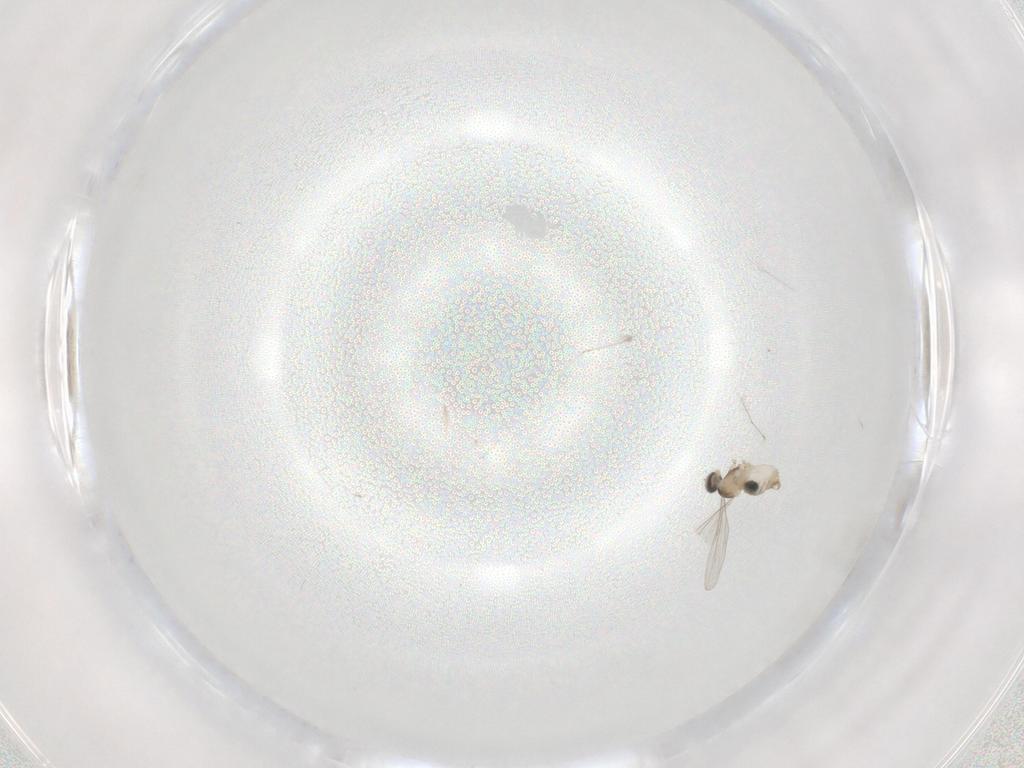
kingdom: Animalia
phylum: Arthropoda
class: Insecta
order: Diptera
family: Cecidomyiidae
